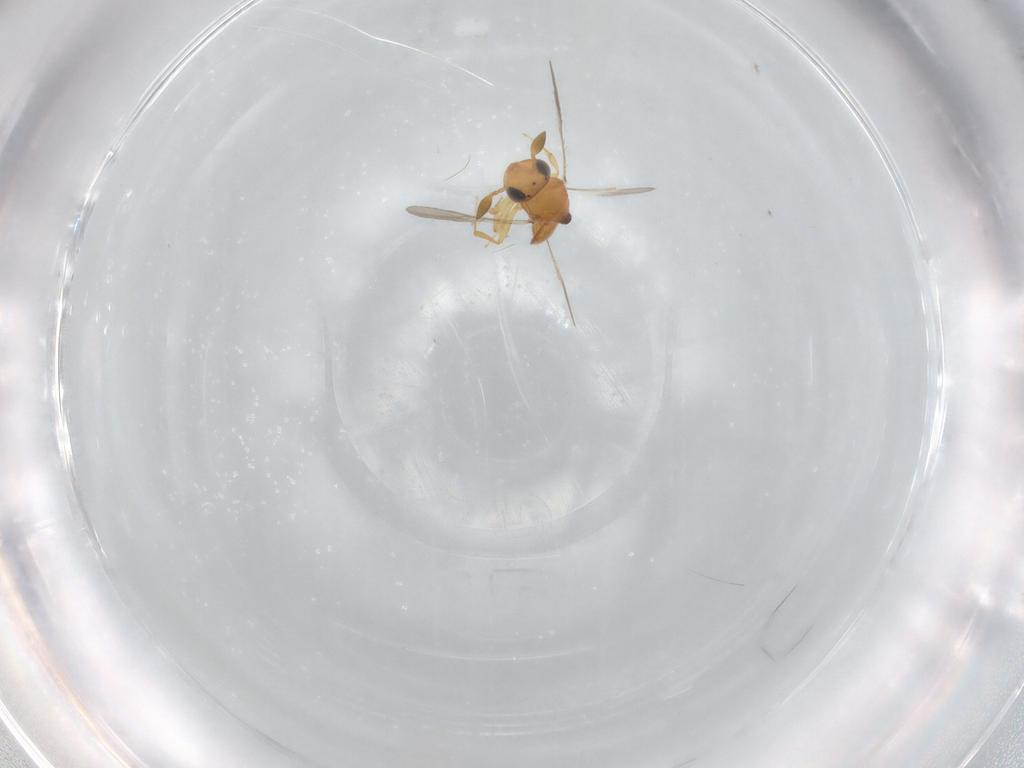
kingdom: Animalia
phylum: Arthropoda
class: Insecta
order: Hymenoptera
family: Scelionidae
